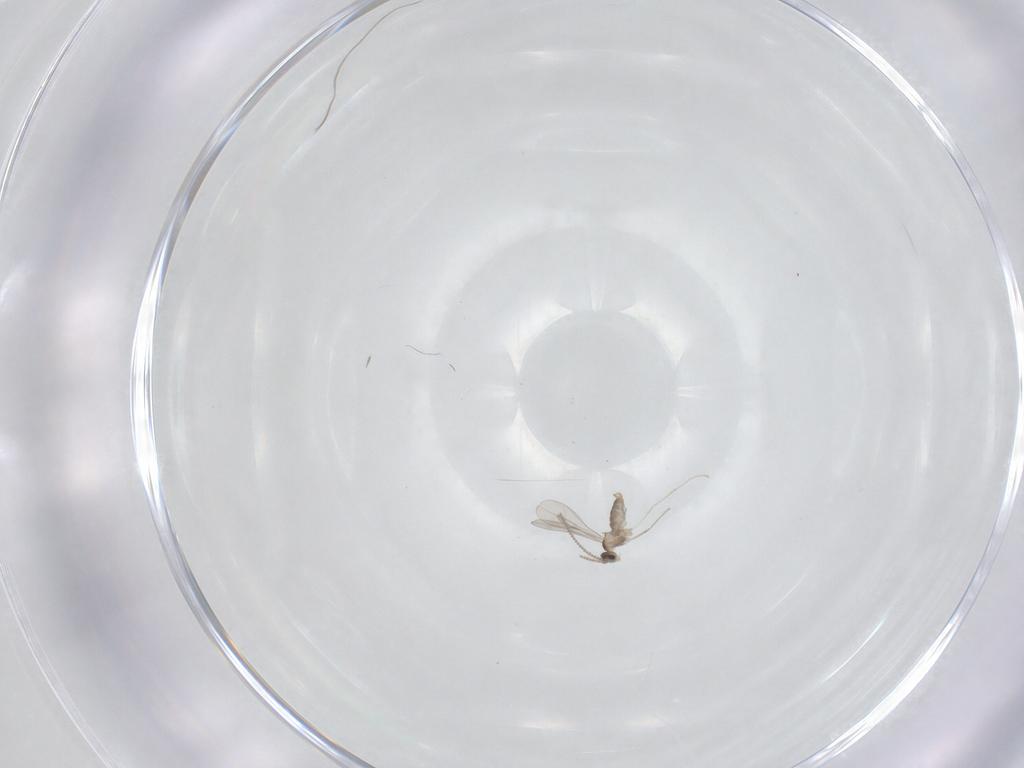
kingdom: Animalia
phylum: Arthropoda
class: Insecta
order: Diptera
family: Cecidomyiidae
